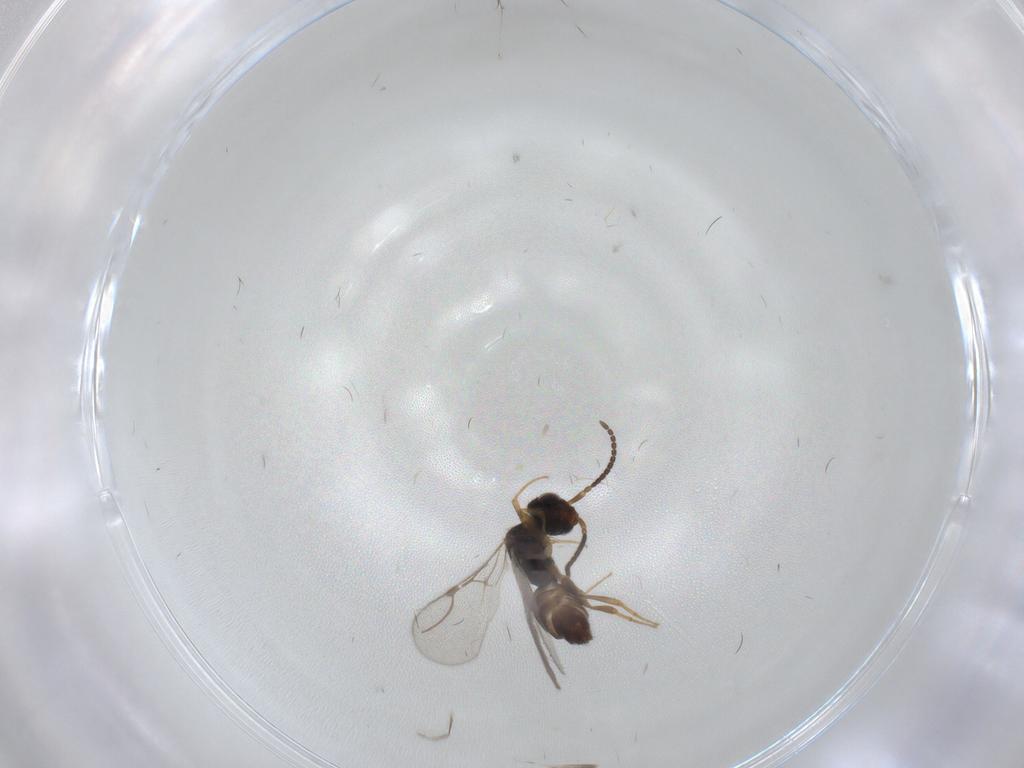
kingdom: Animalia
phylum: Arthropoda
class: Insecta
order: Hymenoptera
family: Bethylidae
